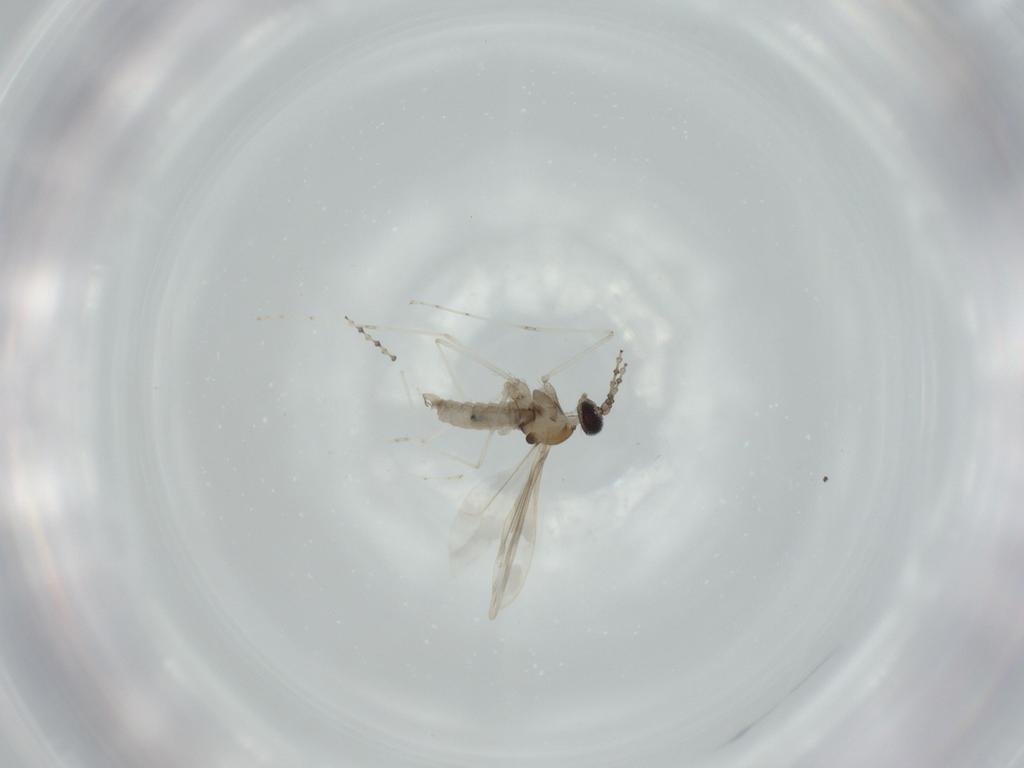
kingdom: Animalia
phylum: Arthropoda
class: Insecta
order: Diptera
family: Cecidomyiidae
